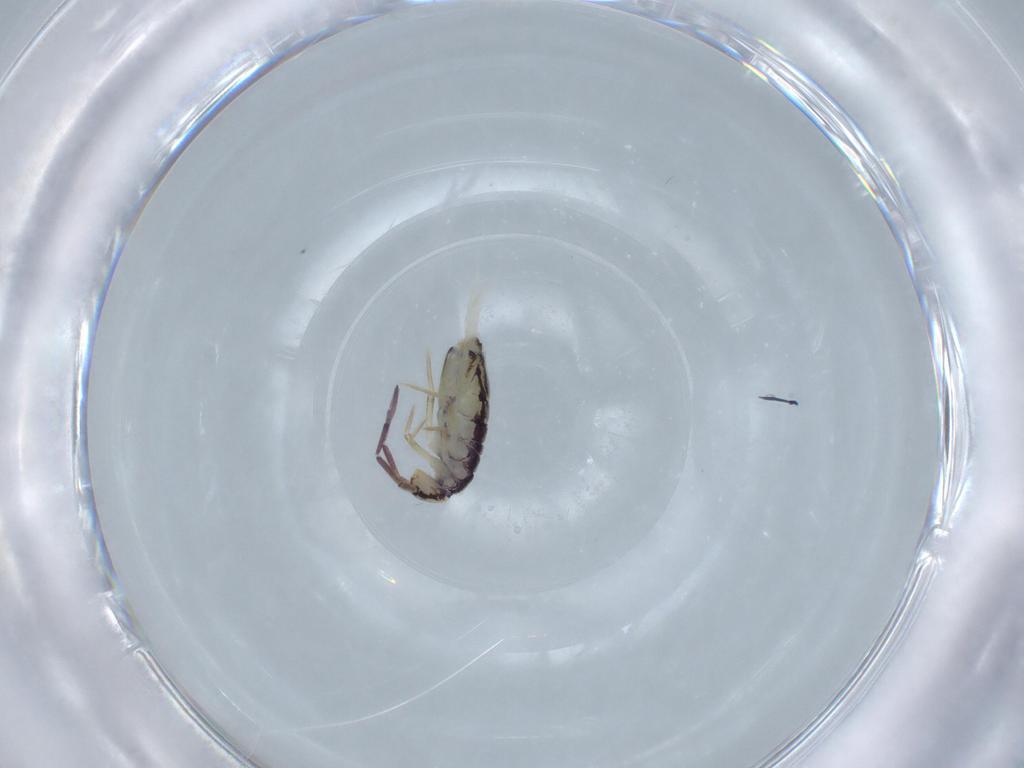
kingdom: Animalia
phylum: Arthropoda
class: Collembola
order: Entomobryomorpha
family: Entomobryidae
